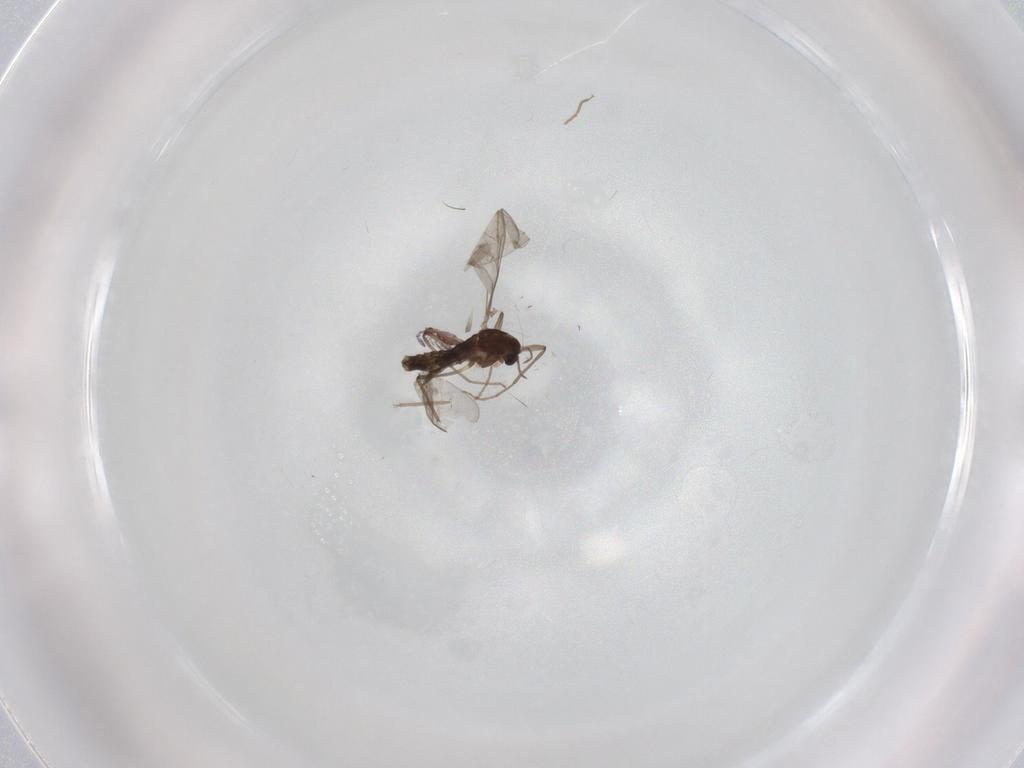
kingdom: Animalia
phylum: Arthropoda
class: Insecta
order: Diptera
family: Chironomidae
